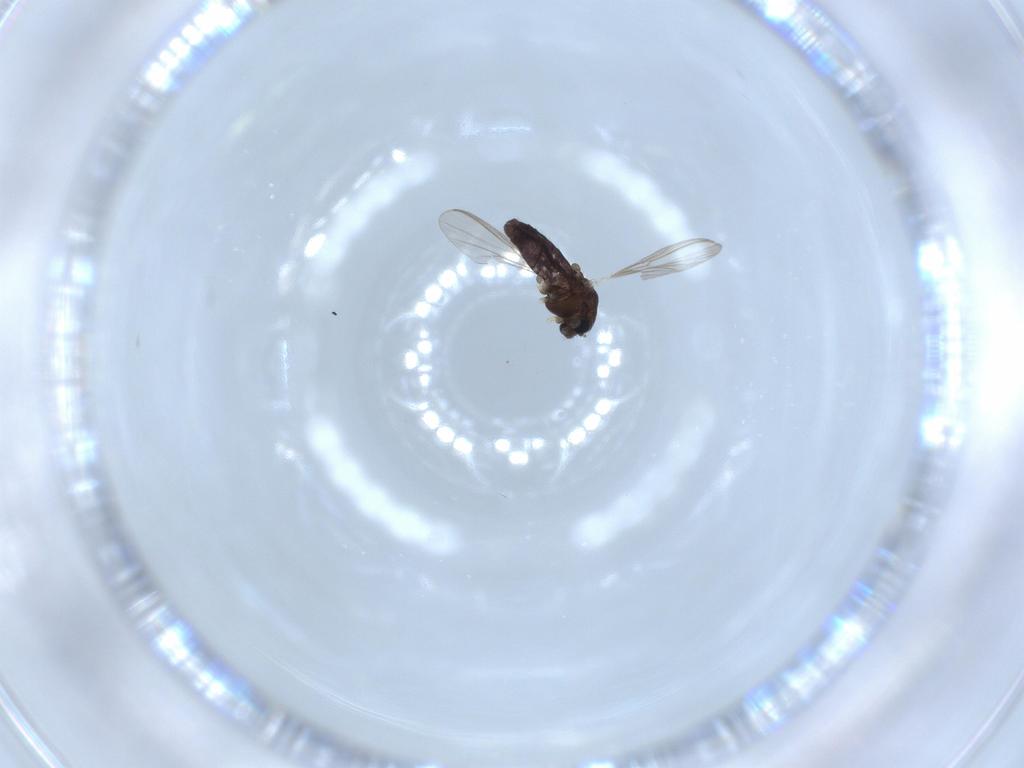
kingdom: Animalia
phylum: Arthropoda
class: Insecta
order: Diptera
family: Chironomidae
